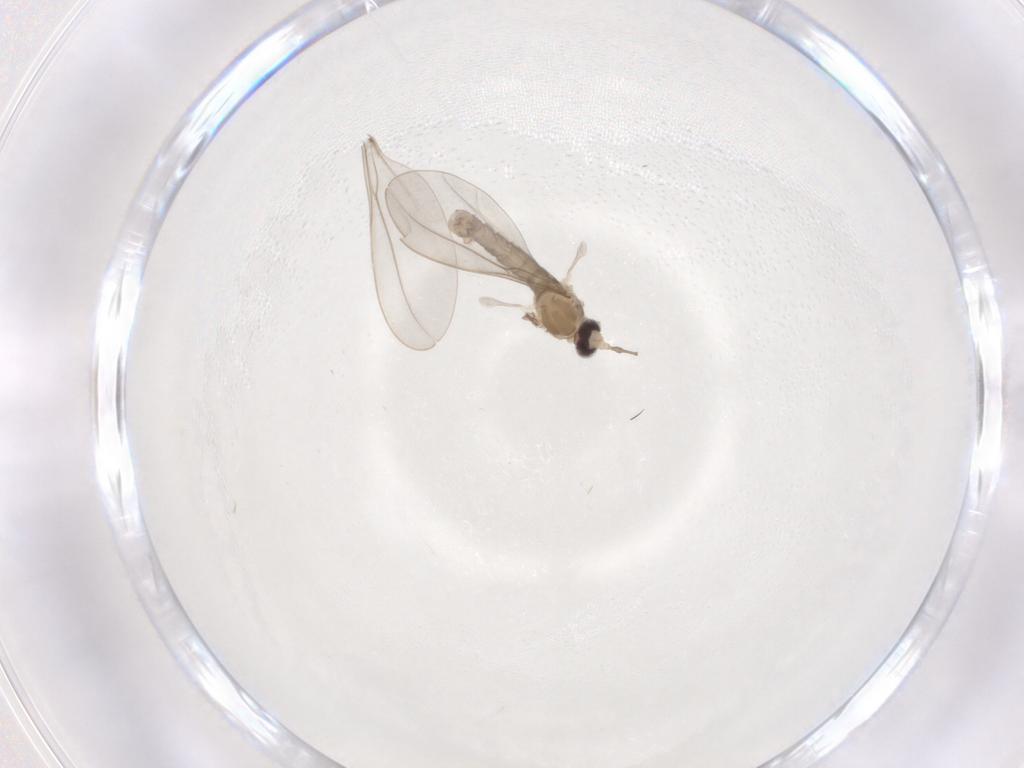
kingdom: Animalia
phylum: Arthropoda
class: Insecta
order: Diptera
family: Cecidomyiidae
